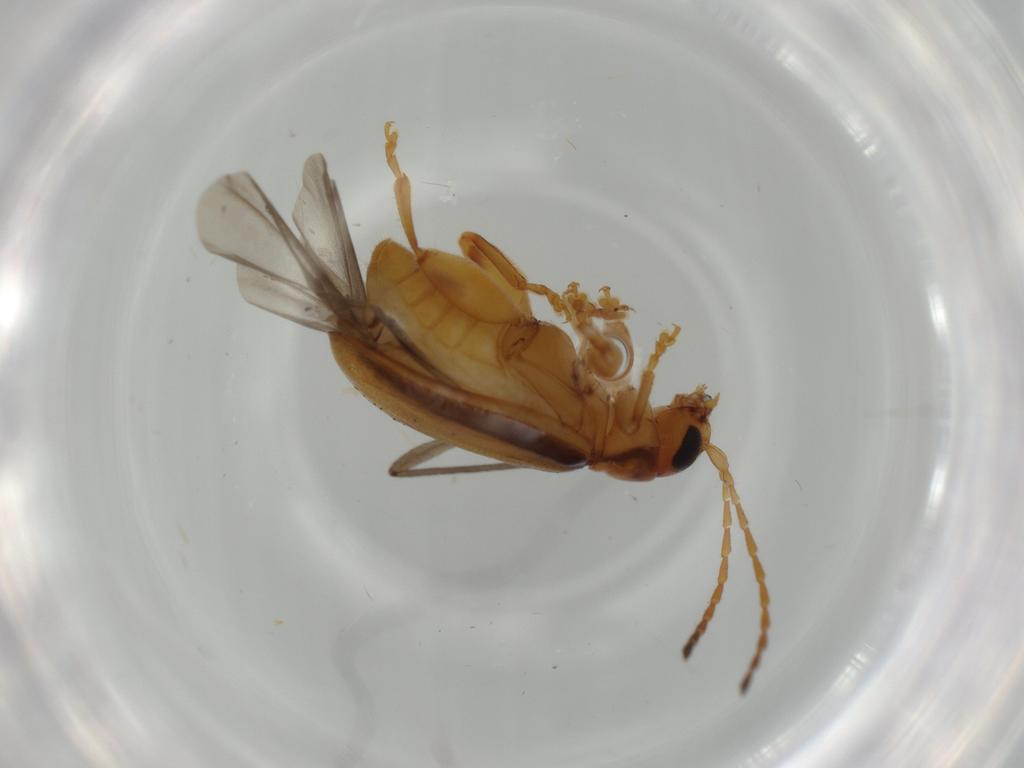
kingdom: Animalia
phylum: Arthropoda
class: Insecta
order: Coleoptera
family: Chrysomelidae
